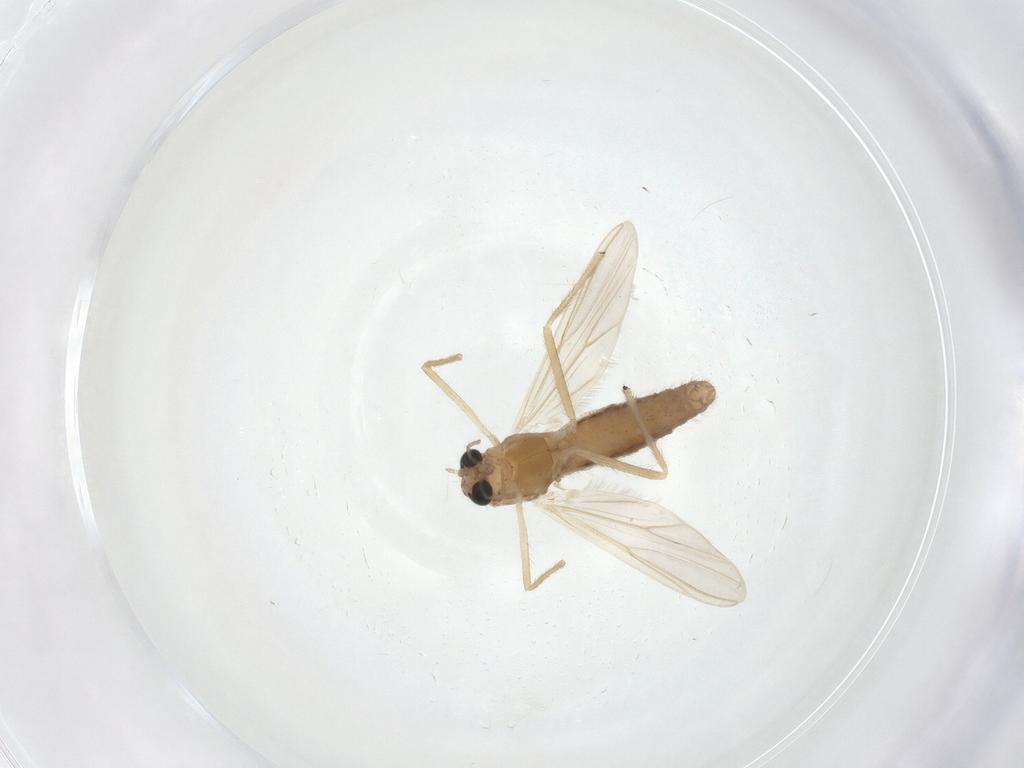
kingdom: Animalia
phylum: Arthropoda
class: Insecta
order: Diptera
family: Chironomidae
